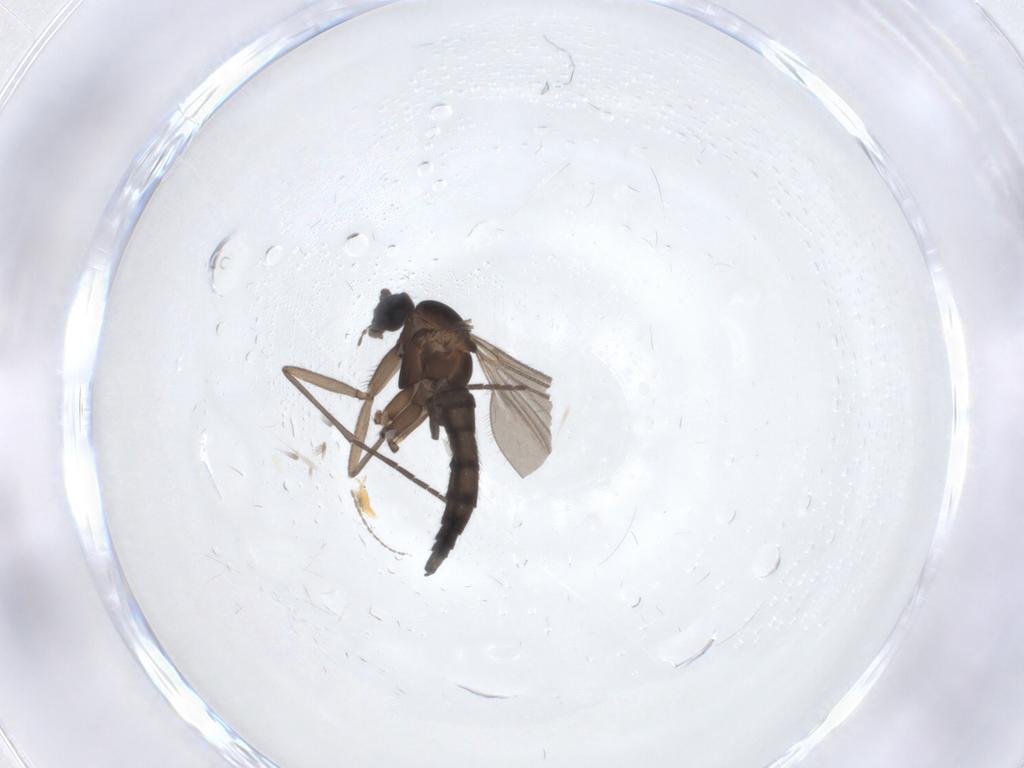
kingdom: Animalia
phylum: Arthropoda
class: Insecta
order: Diptera
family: Sciaridae
